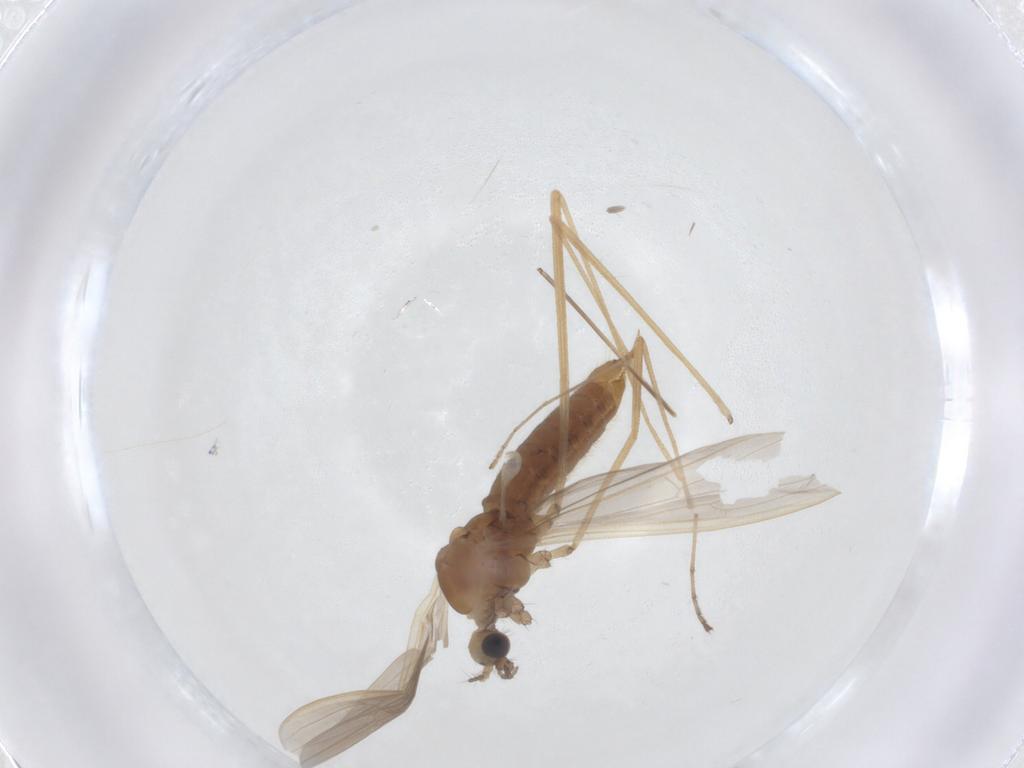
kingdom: Animalia
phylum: Arthropoda
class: Insecta
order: Diptera
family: Limoniidae
